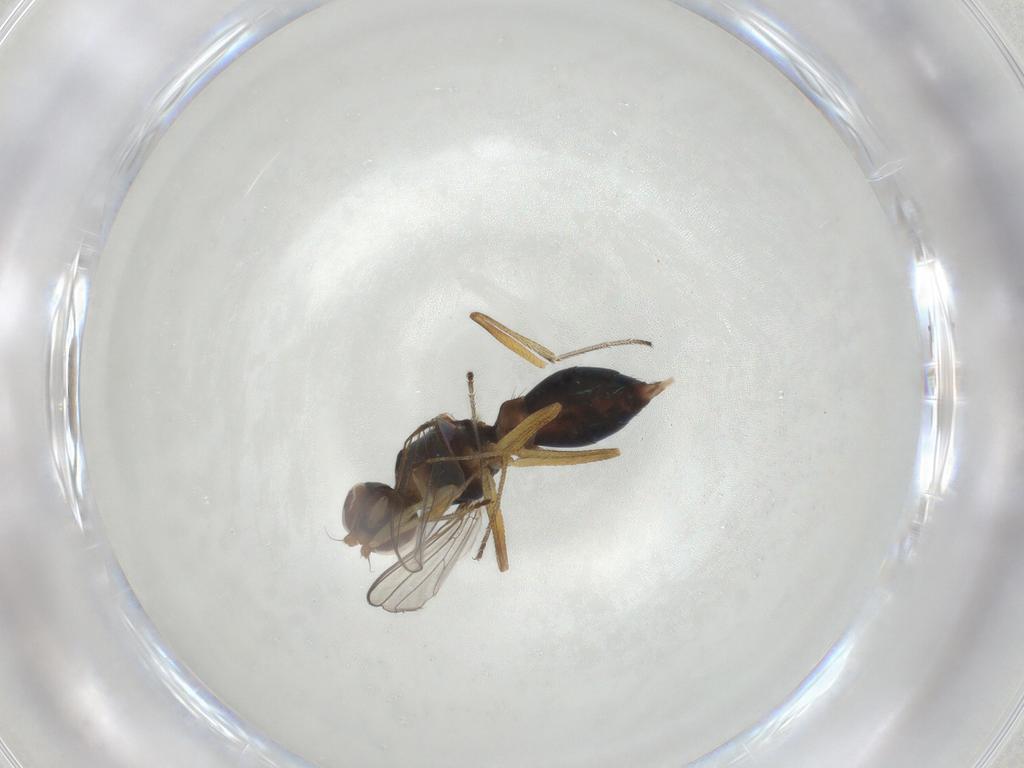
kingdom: Animalia
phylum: Arthropoda
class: Insecta
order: Diptera
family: Sepsidae
